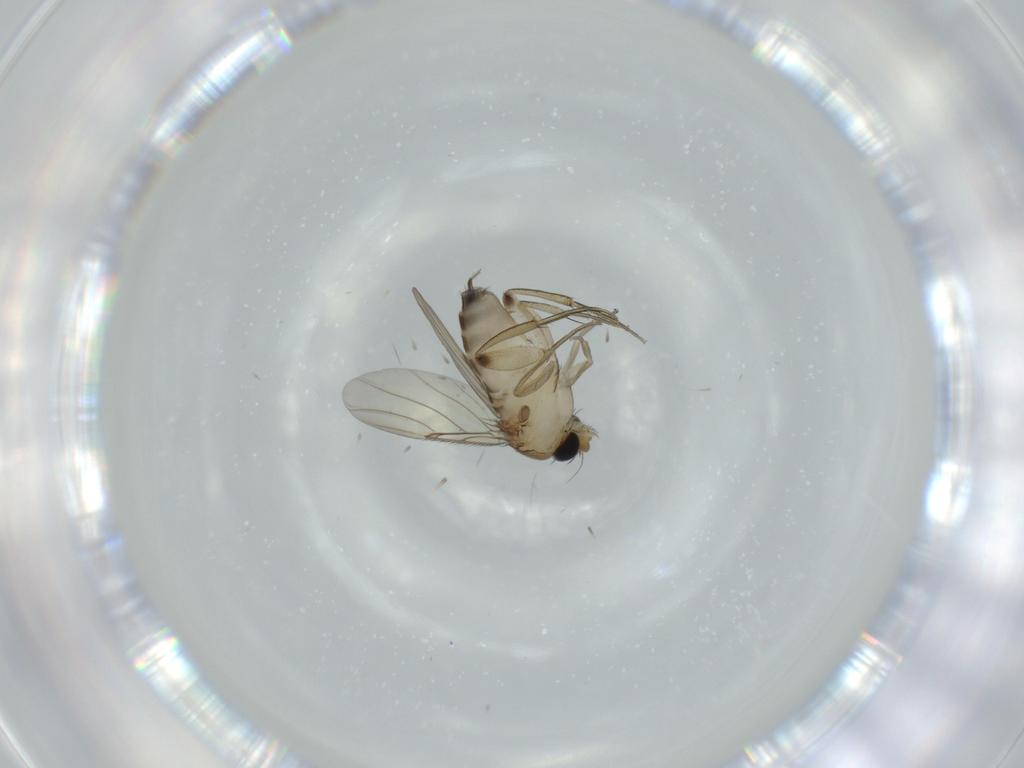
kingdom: Animalia
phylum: Arthropoda
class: Insecta
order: Diptera
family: Phoridae
